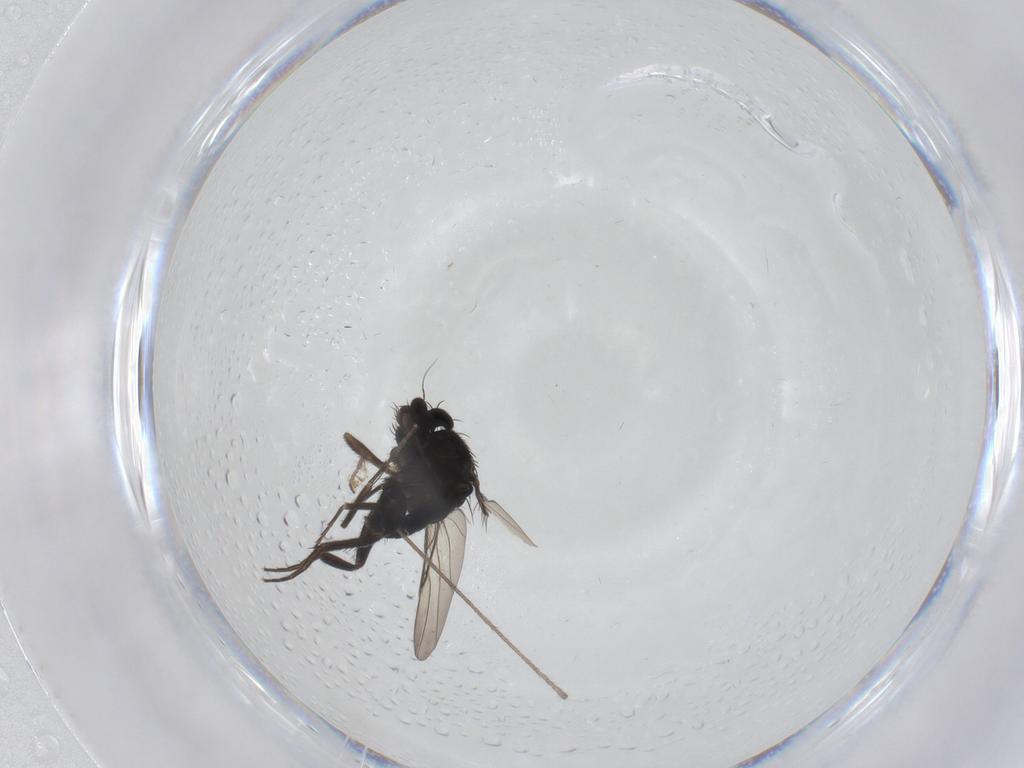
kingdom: Animalia
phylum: Arthropoda
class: Insecta
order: Diptera
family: Phoridae
